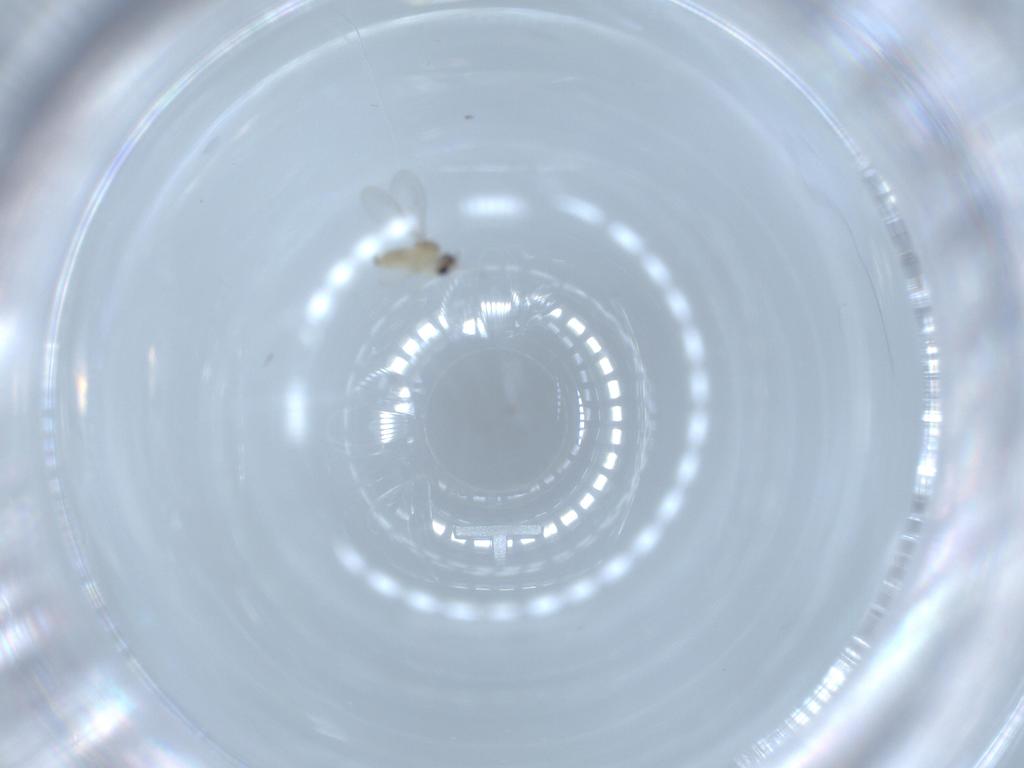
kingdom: Animalia
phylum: Arthropoda
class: Insecta
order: Diptera
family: Cecidomyiidae
